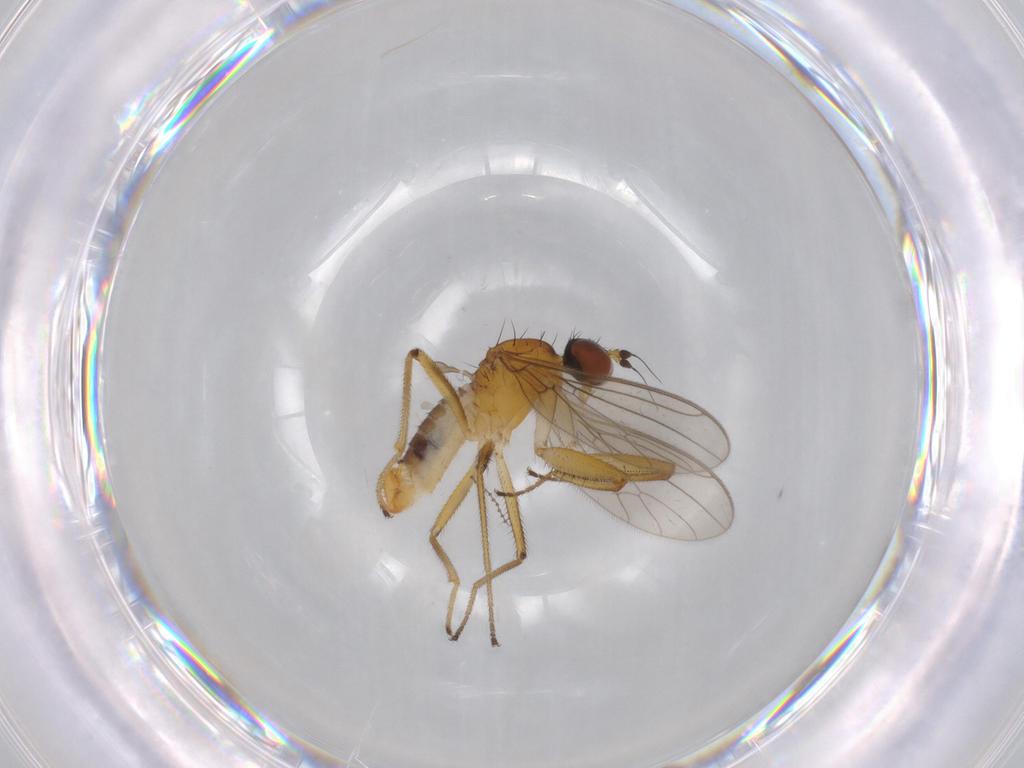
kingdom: Animalia
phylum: Arthropoda
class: Insecta
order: Diptera
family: Empididae
